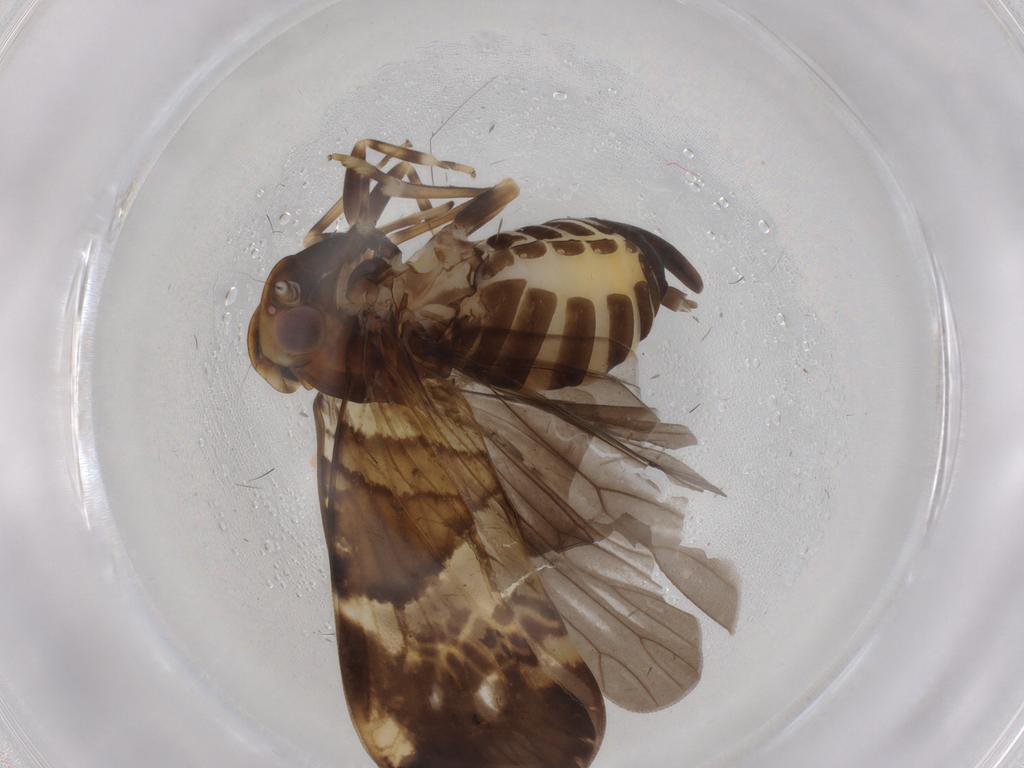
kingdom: Animalia
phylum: Arthropoda
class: Insecta
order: Hemiptera
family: Cixiidae
